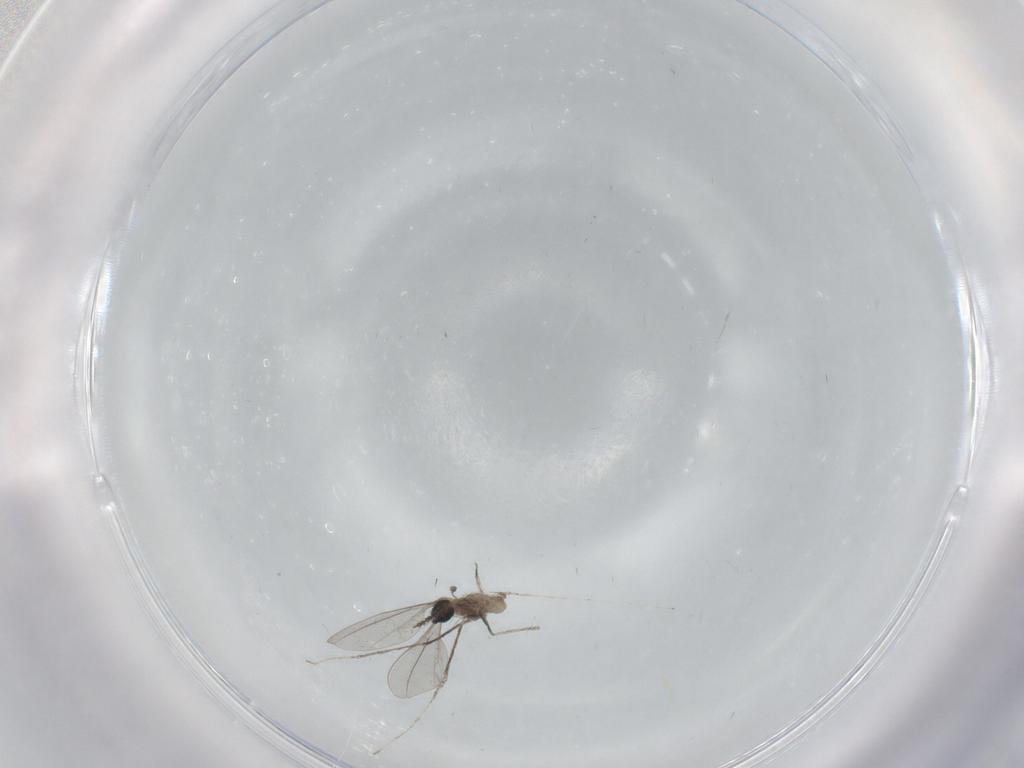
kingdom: Animalia
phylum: Arthropoda
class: Insecta
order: Diptera
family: Cecidomyiidae
